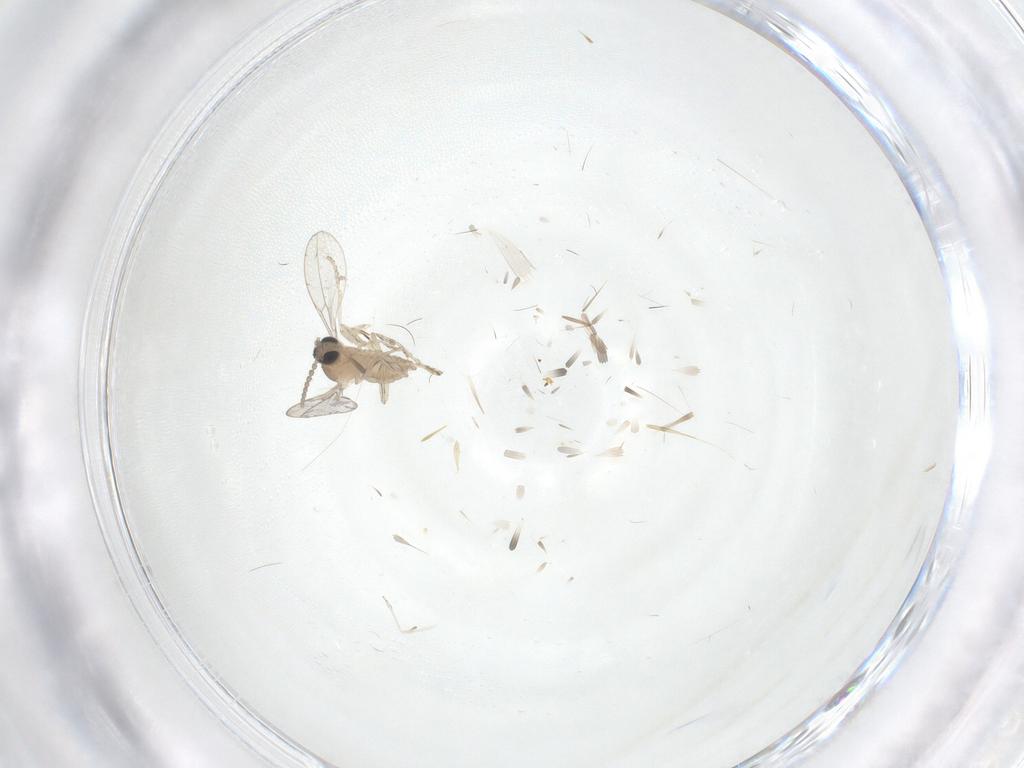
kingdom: Animalia
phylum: Arthropoda
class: Insecta
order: Diptera
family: Cecidomyiidae
